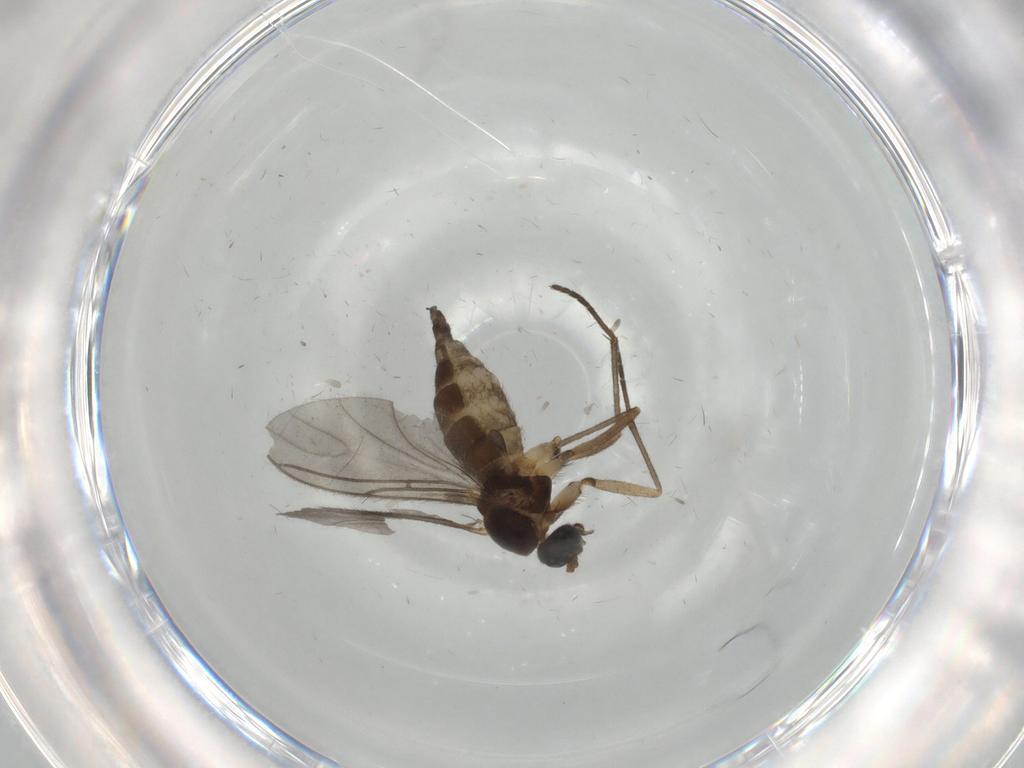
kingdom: Animalia
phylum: Arthropoda
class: Insecta
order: Diptera
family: Sciaridae
